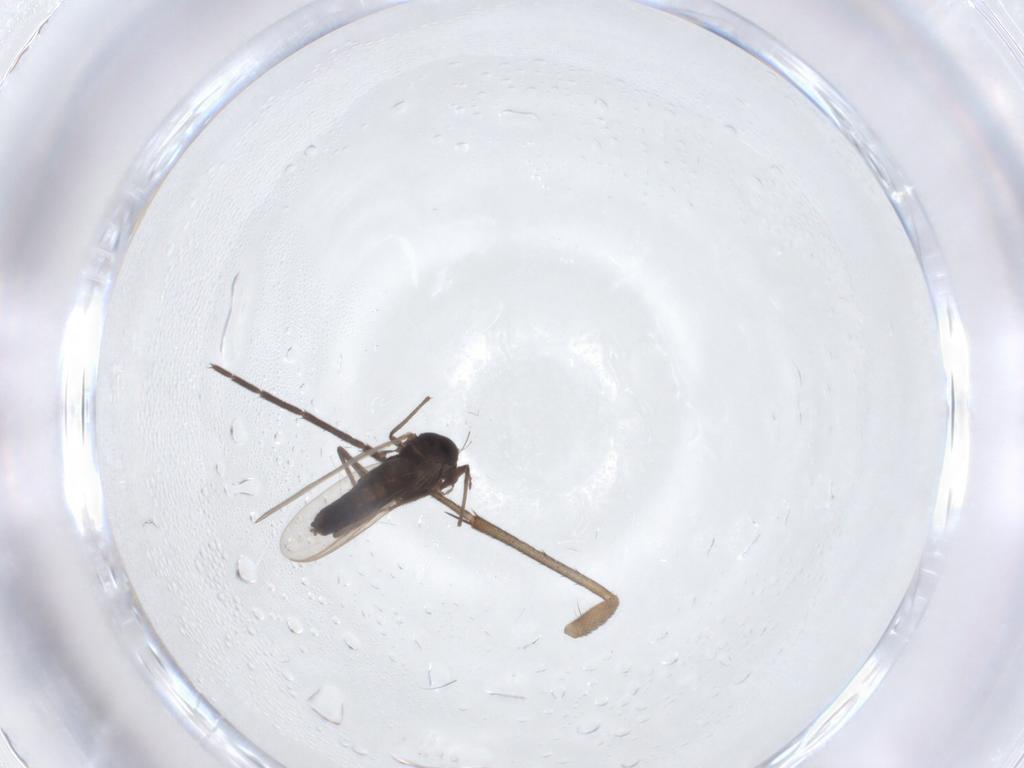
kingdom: Animalia
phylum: Arthropoda
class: Insecta
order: Diptera
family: Mycetophilidae
